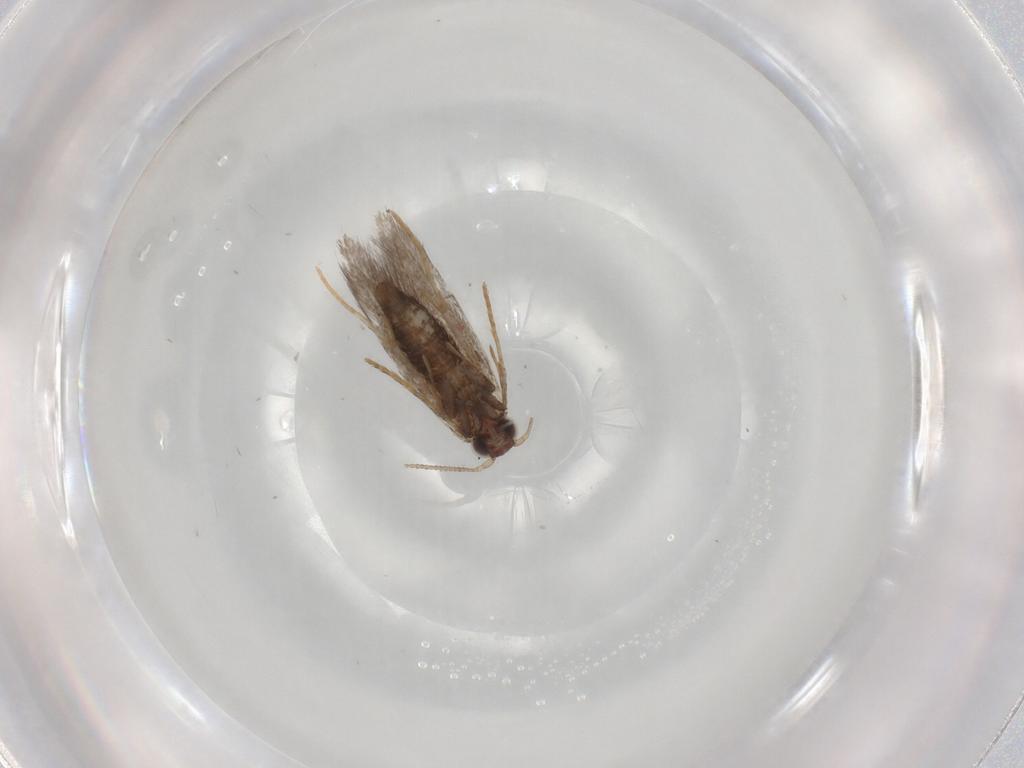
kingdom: Animalia
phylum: Arthropoda
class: Insecta
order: Lepidoptera
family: Tineidae
